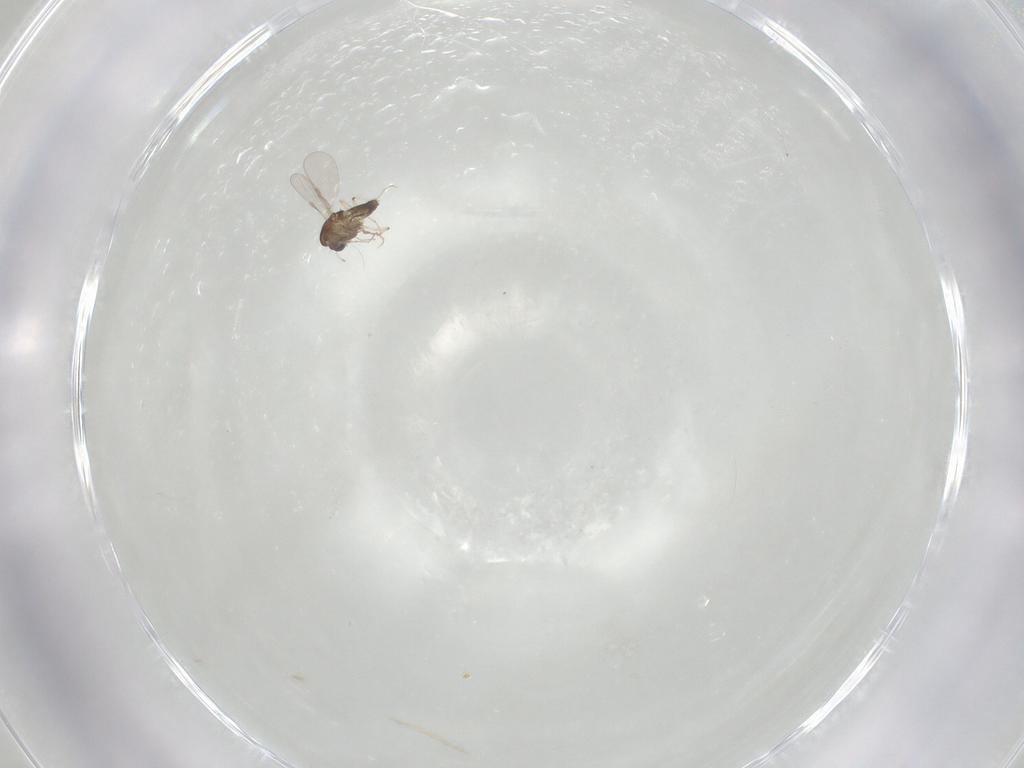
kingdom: Animalia
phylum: Arthropoda
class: Insecta
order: Diptera
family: Chironomidae
